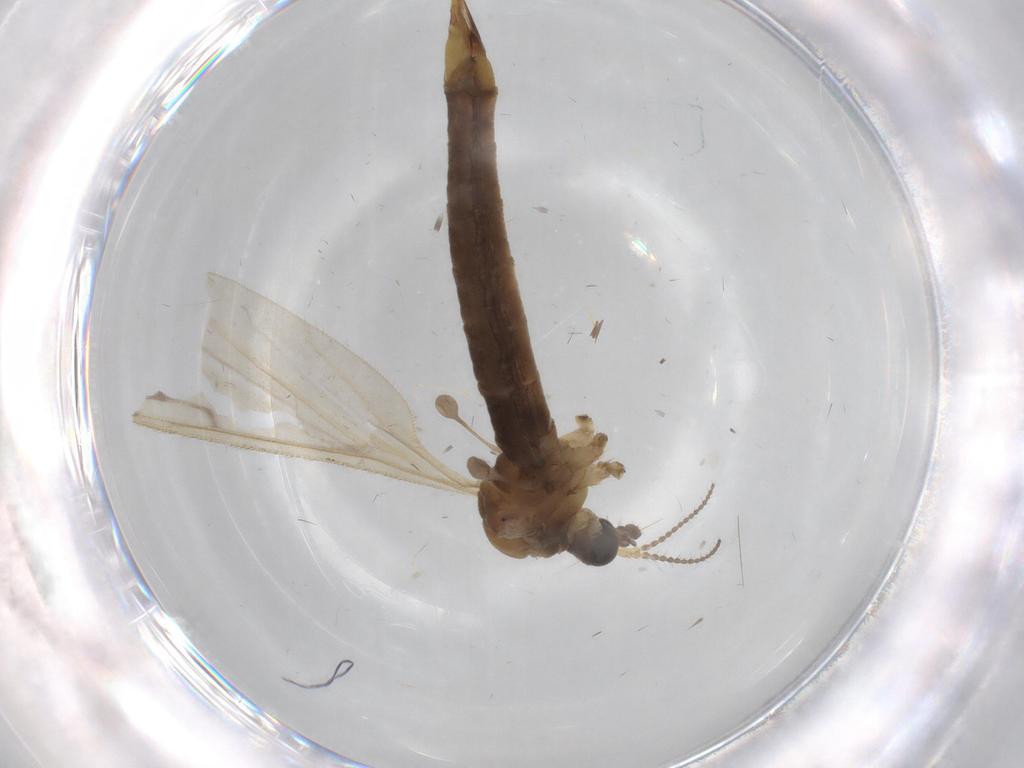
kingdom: Animalia
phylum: Arthropoda
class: Insecta
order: Diptera
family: Sciaridae
